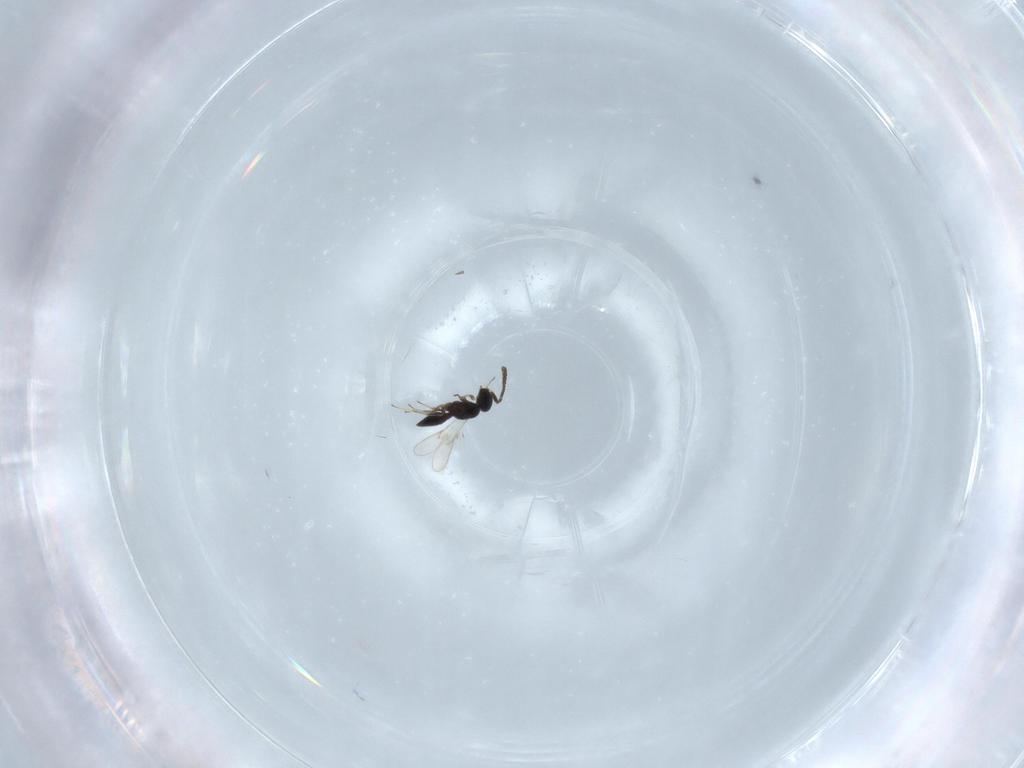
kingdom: Animalia
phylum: Arthropoda
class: Insecta
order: Hymenoptera
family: Scelionidae
